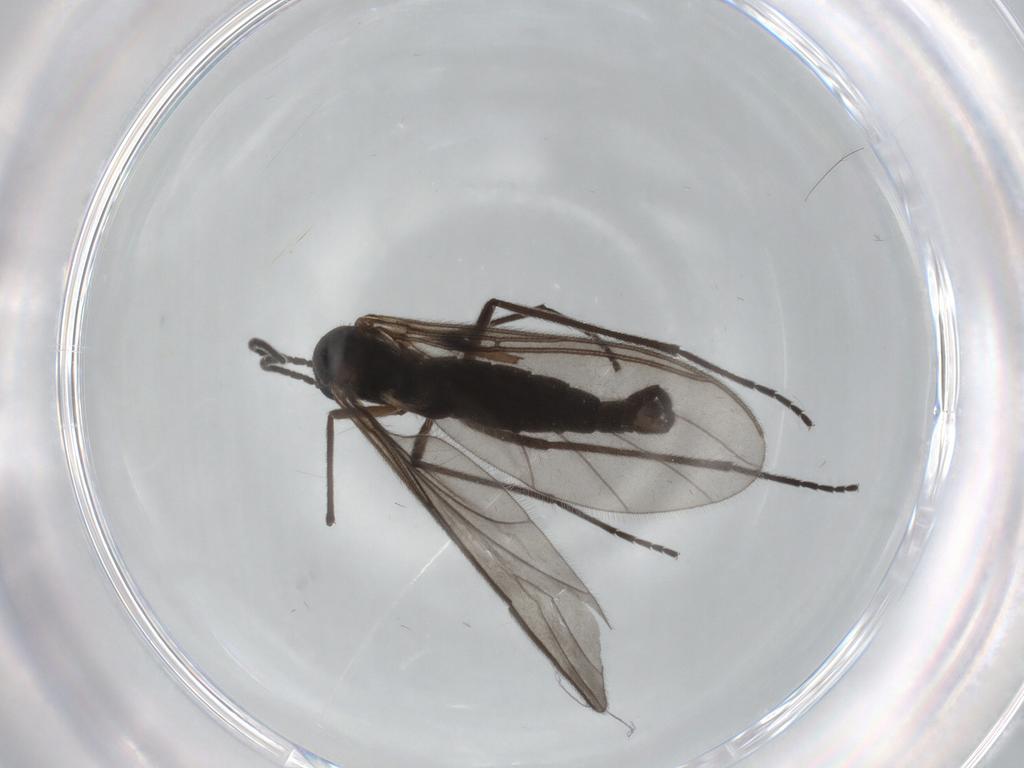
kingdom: Animalia
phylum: Arthropoda
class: Insecta
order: Diptera
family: Sciaridae
